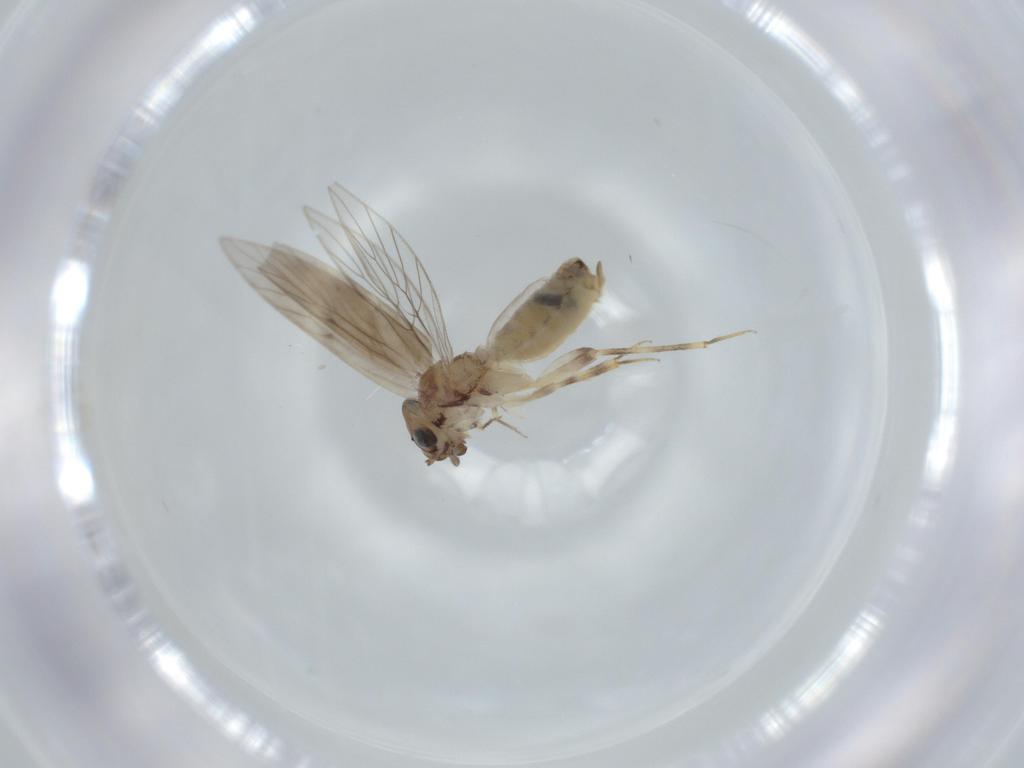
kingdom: Animalia
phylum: Arthropoda
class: Insecta
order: Psocodea
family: Lepidopsocidae
